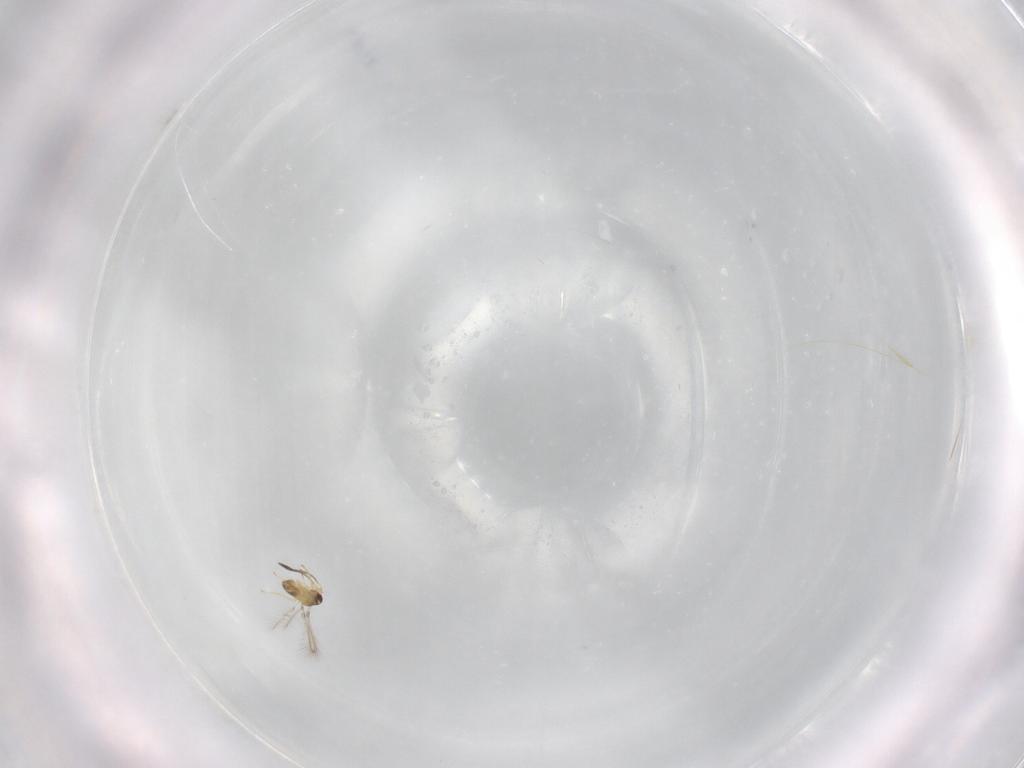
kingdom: Animalia
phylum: Arthropoda
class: Insecta
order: Hymenoptera
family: Mymaridae
